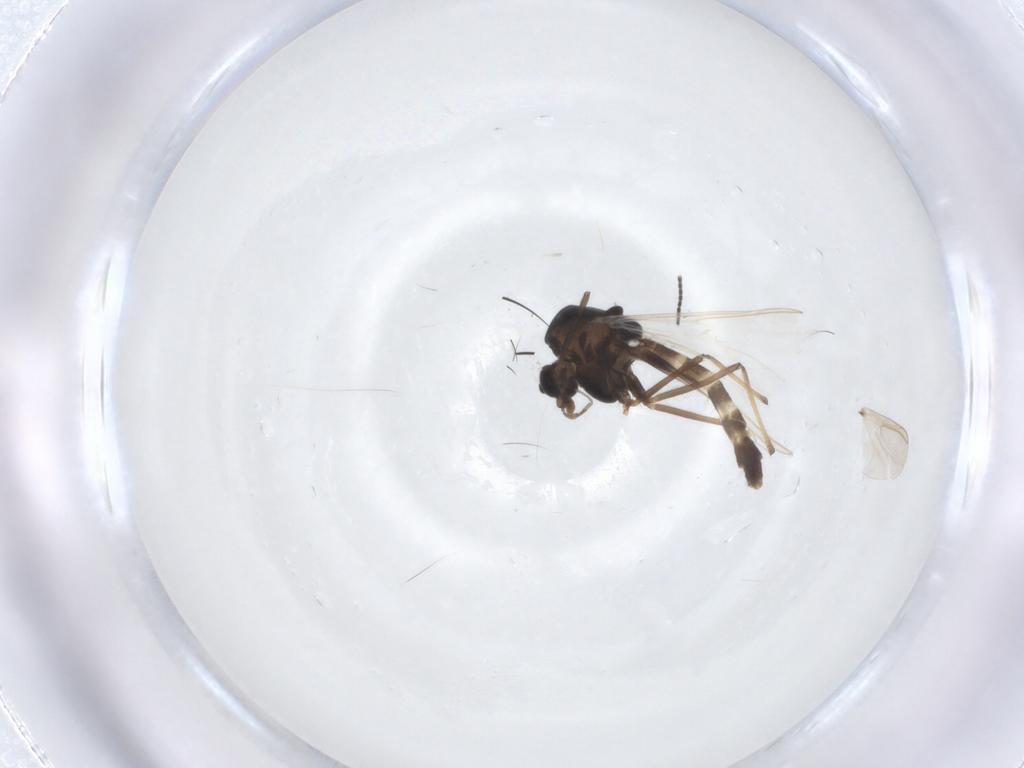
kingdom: Animalia
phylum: Arthropoda
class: Insecta
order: Diptera
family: Chironomidae
